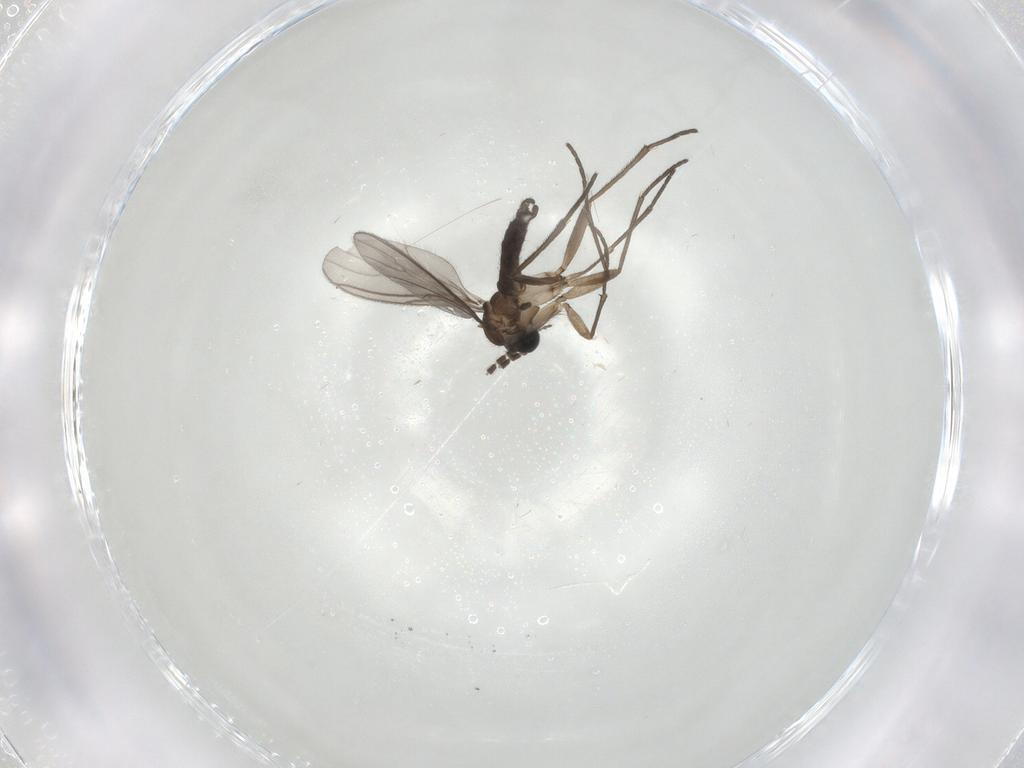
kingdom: Animalia
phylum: Arthropoda
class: Insecta
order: Diptera
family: Sciaridae
